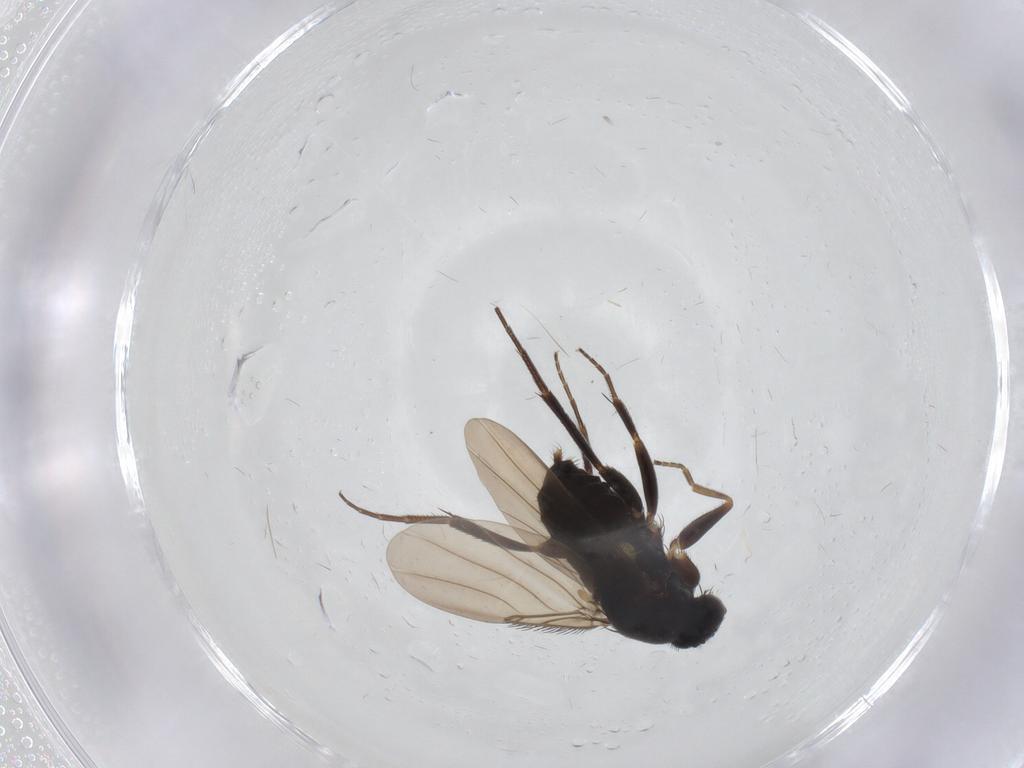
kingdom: Animalia
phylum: Arthropoda
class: Insecta
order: Diptera
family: Phoridae
